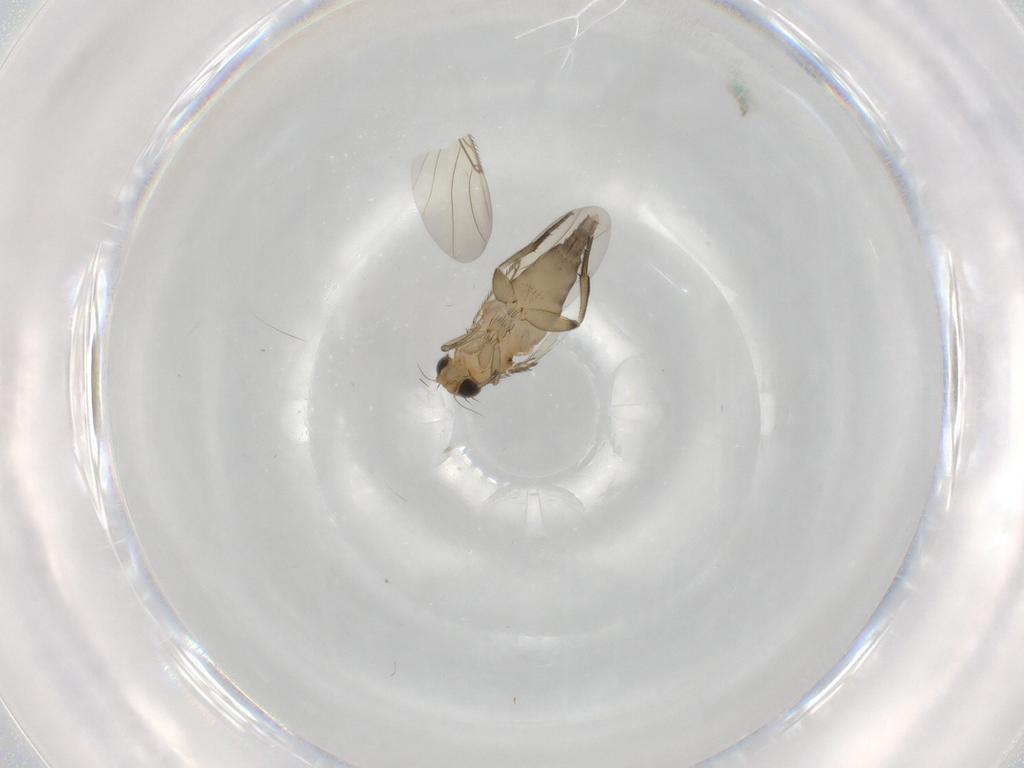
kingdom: Animalia
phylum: Arthropoda
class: Insecta
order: Diptera
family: Phoridae
